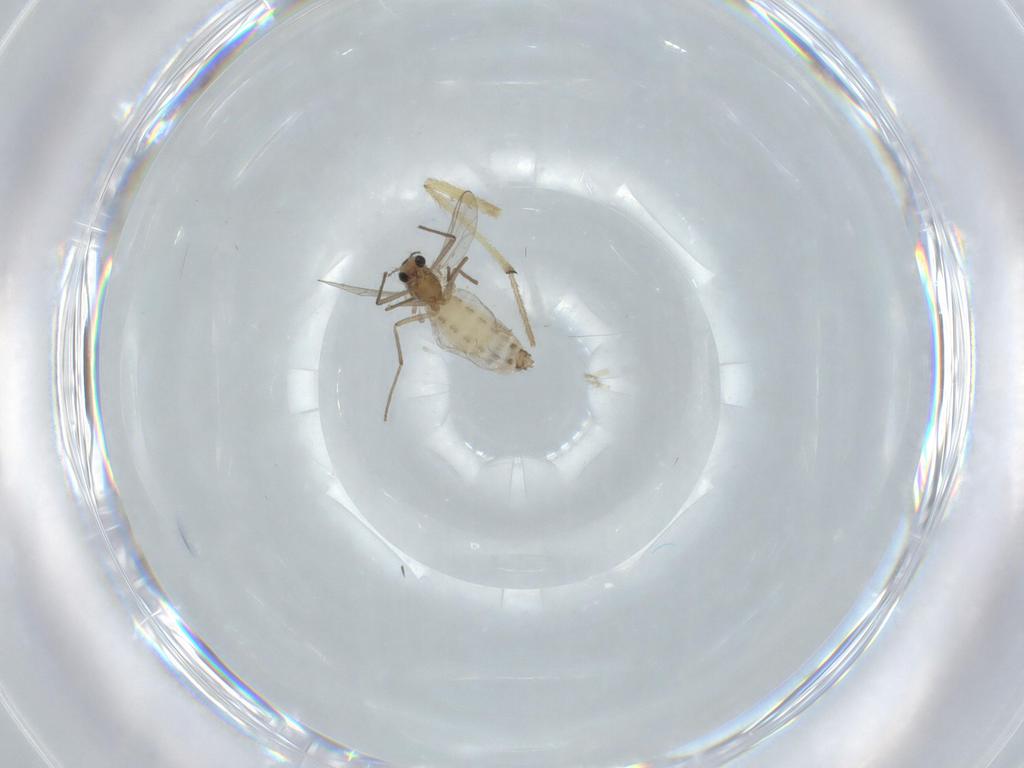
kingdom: Animalia
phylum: Arthropoda
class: Insecta
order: Diptera
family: Chironomidae
